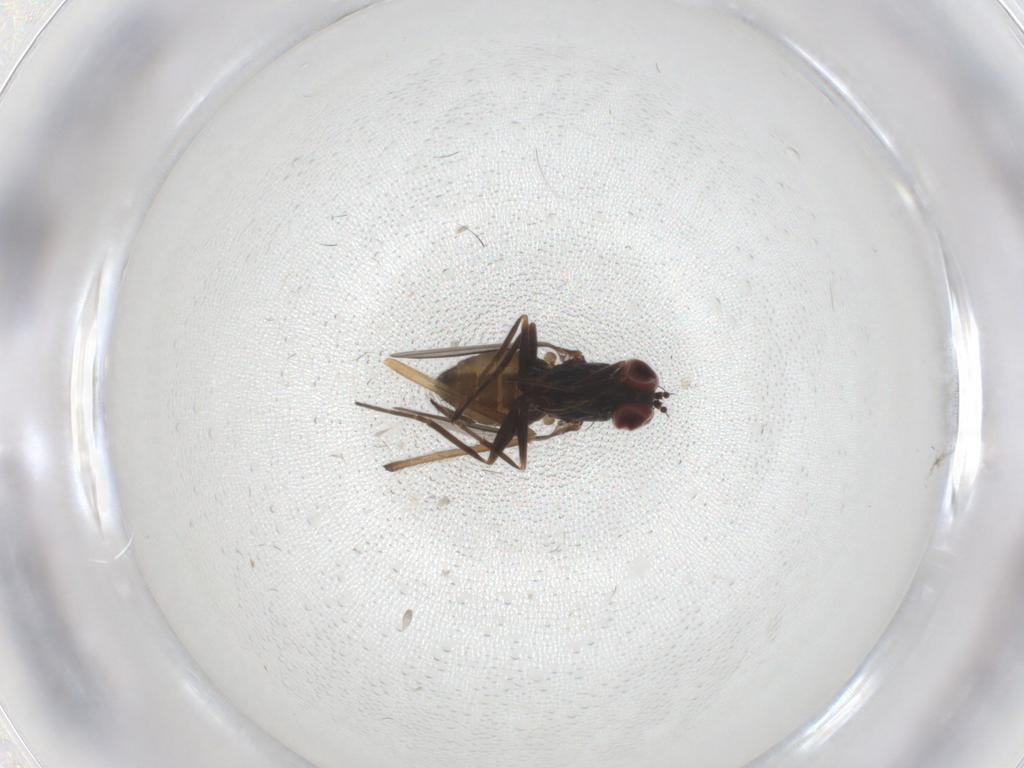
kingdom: Animalia
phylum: Arthropoda
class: Insecta
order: Diptera
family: Dolichopodidae
